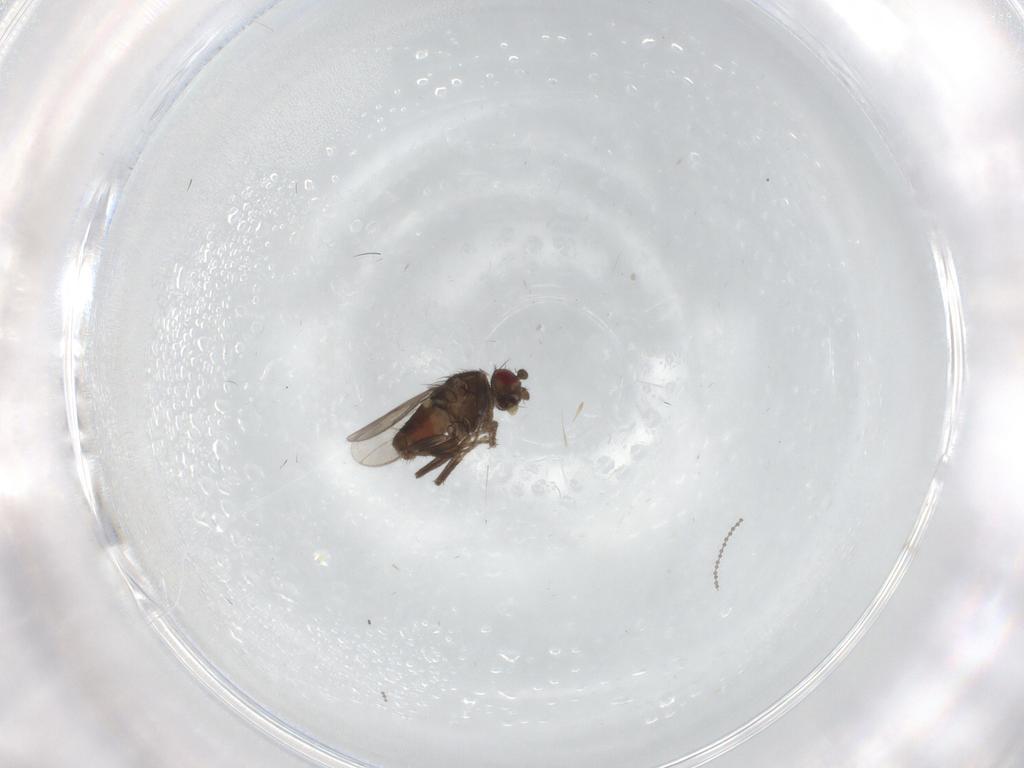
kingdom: Animalia
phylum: Arthropoda
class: Insecta
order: Diptera
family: Sphaeroceridae
